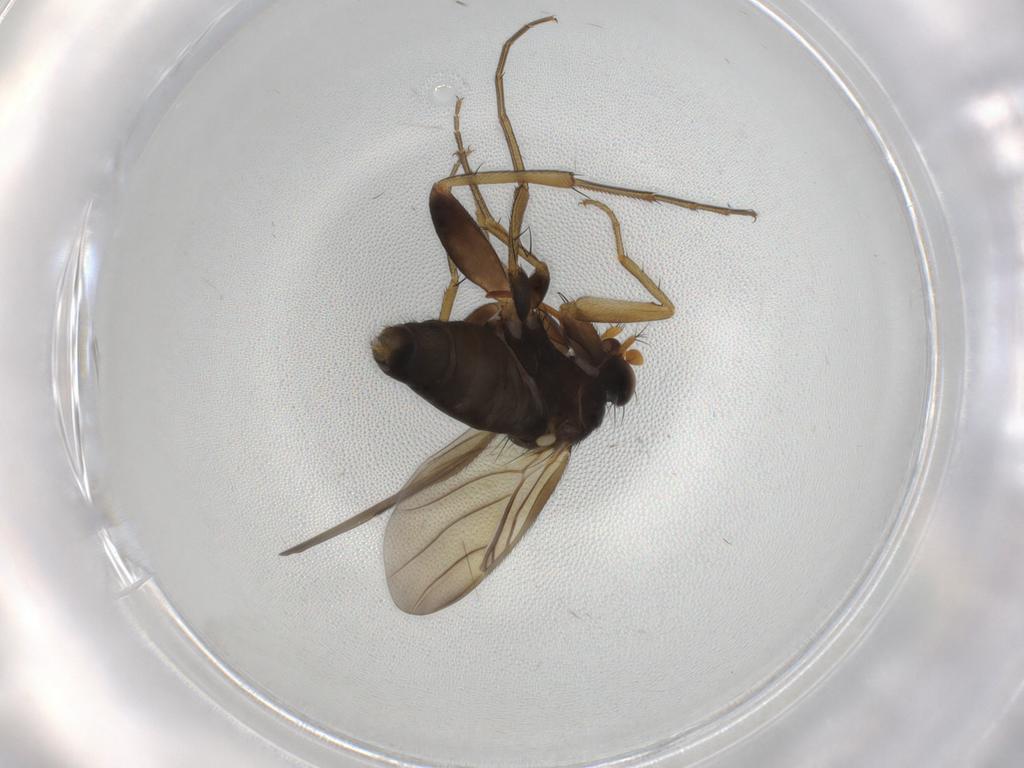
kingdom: Animalia
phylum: Arthropoda
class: Insecta
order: Diptera
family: Phoridae
